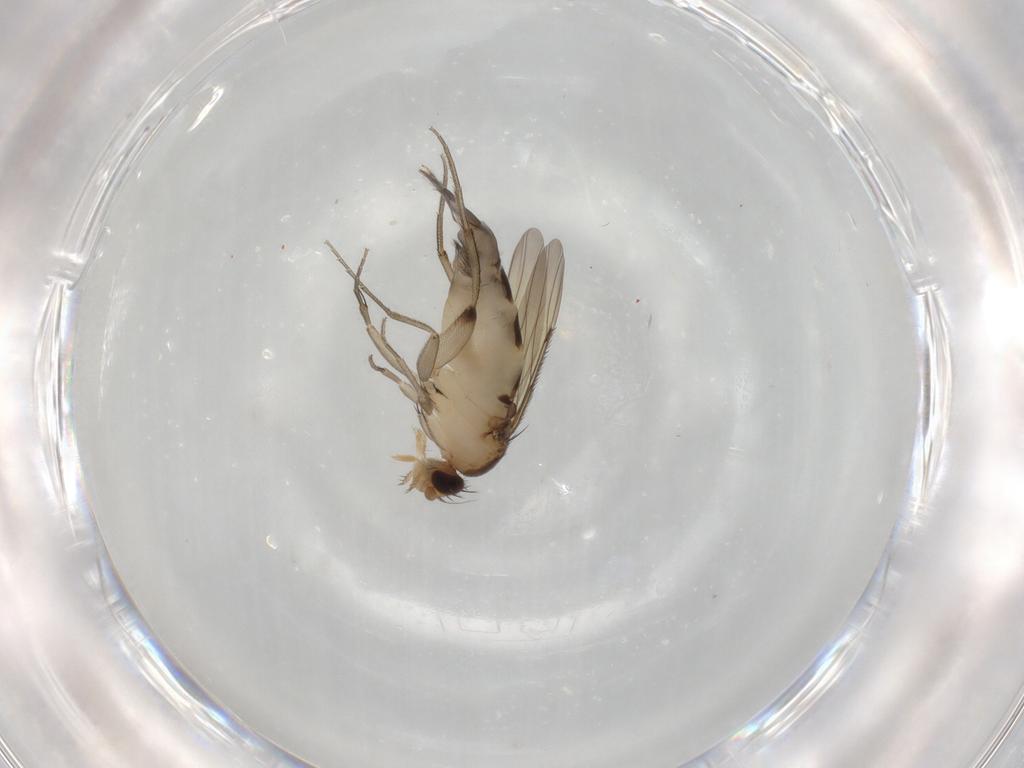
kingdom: Animalia
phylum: Arthropoda
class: Insecta
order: Diptera
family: Phoridae
